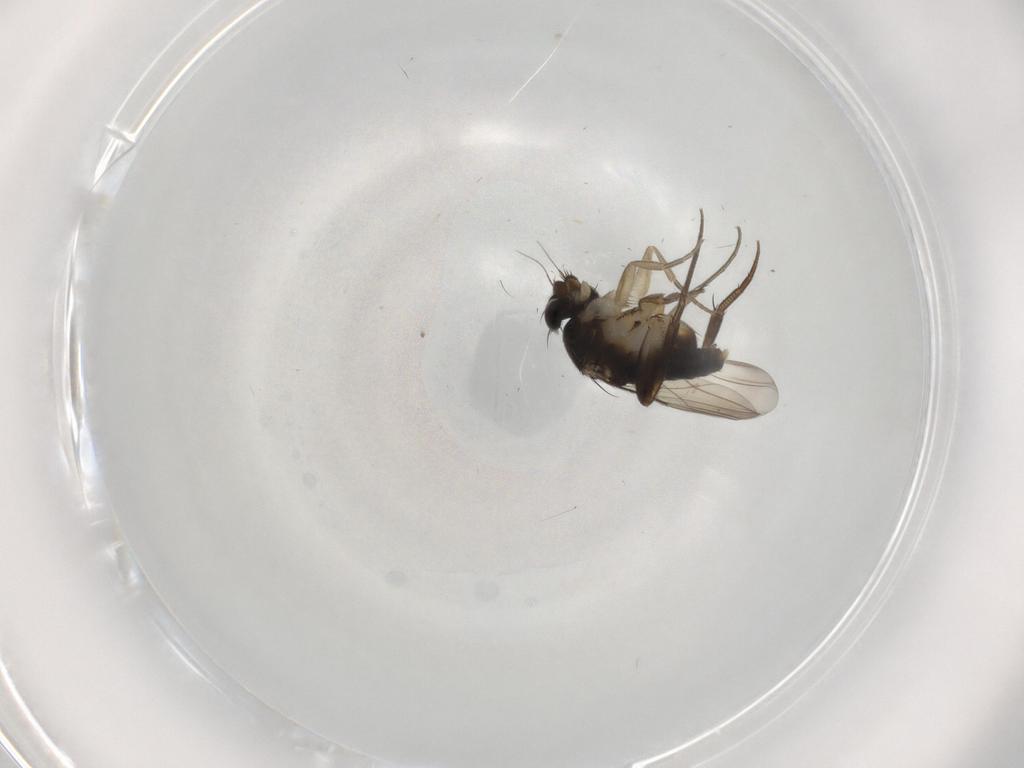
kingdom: Animalia
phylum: Arthropoda
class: Insecta
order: Diptera
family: Phoridae
